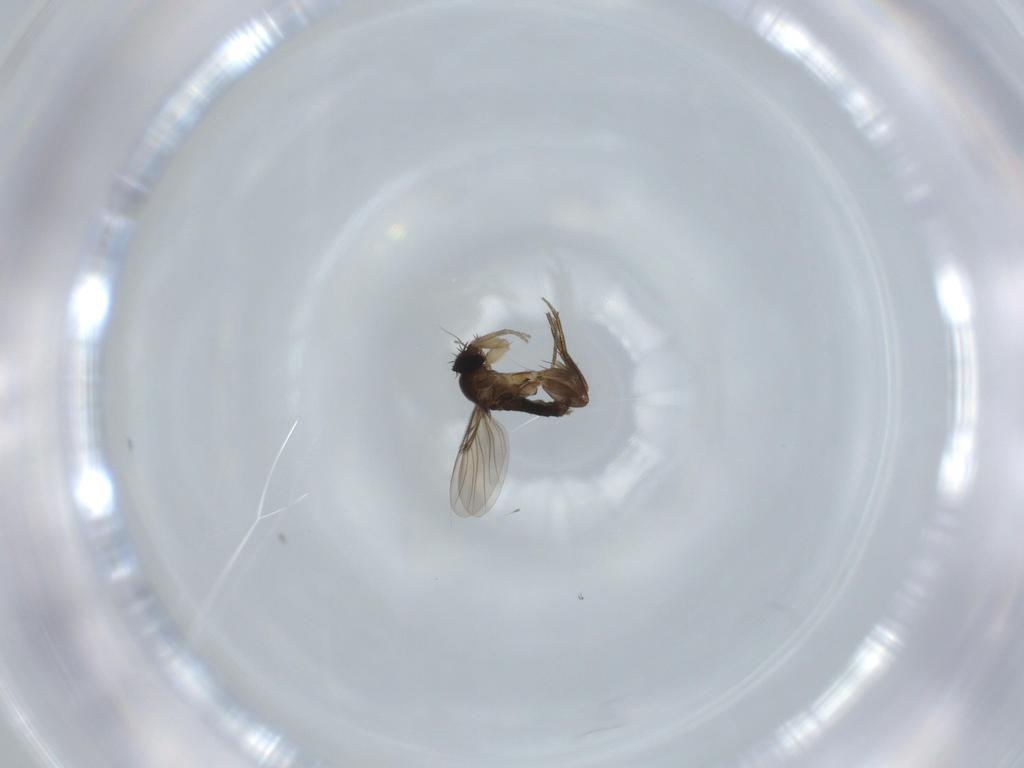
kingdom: Animalia
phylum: Arthropoda
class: Insecta
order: Diptera
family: Phoridae
